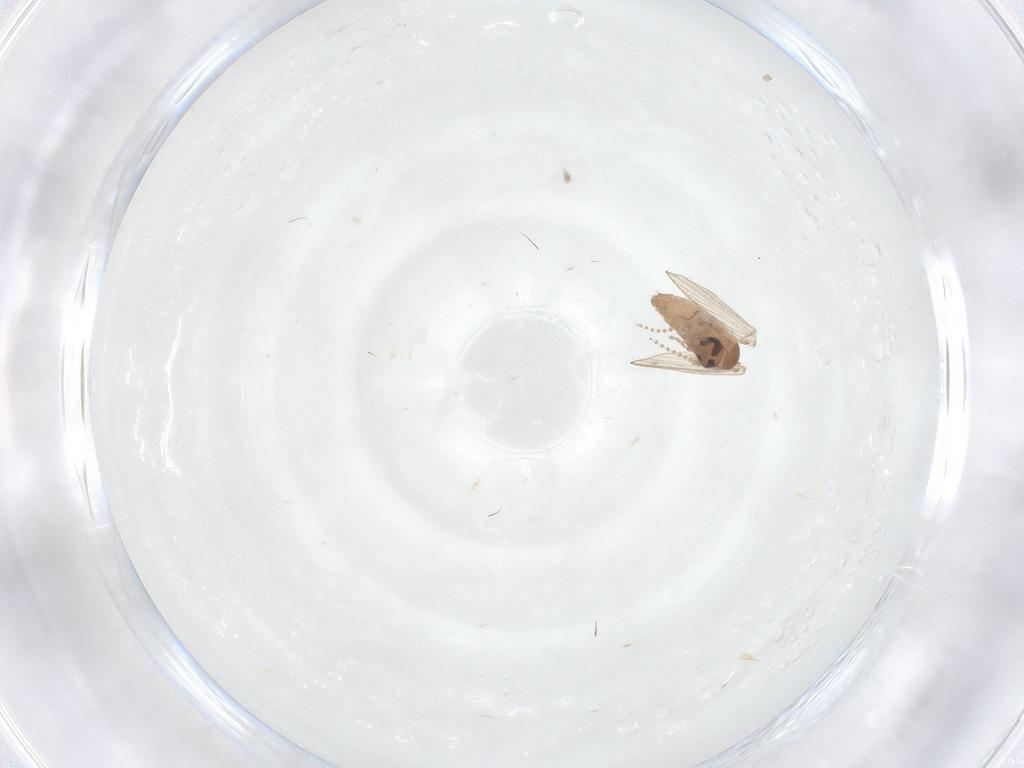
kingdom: Animalia
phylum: Arthropoda
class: Insecta
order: Diptera
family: Psychodidae
